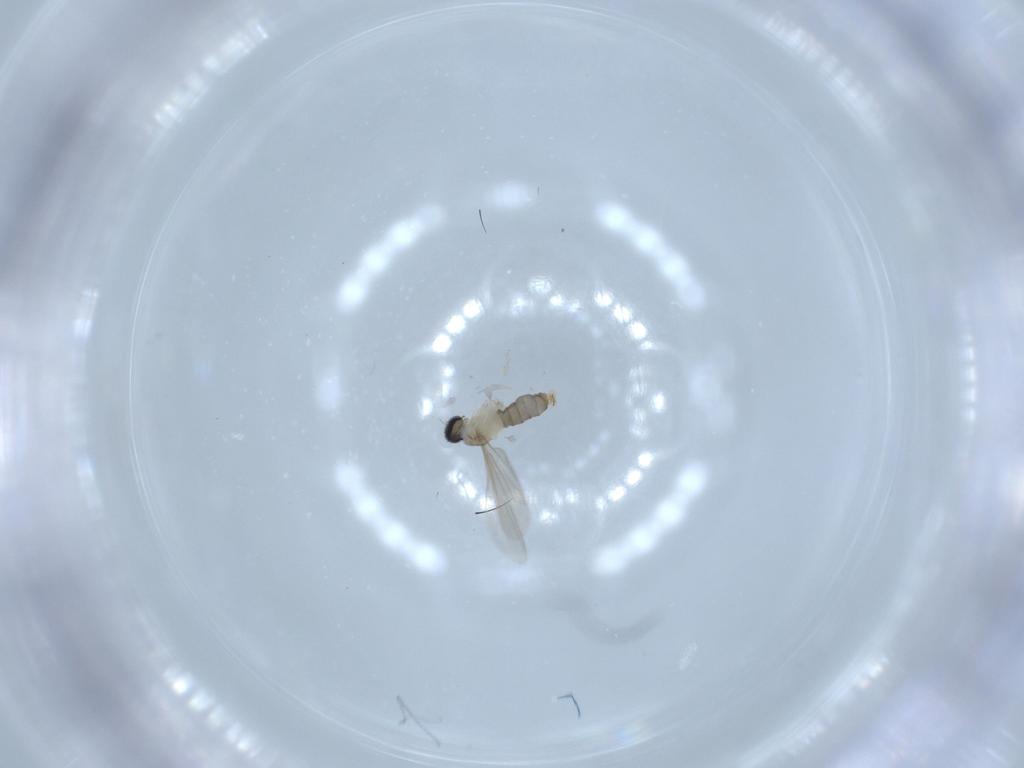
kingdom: Animalia
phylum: Arthropoda
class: Insecta
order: Diptera
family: Cecidomyiidae
